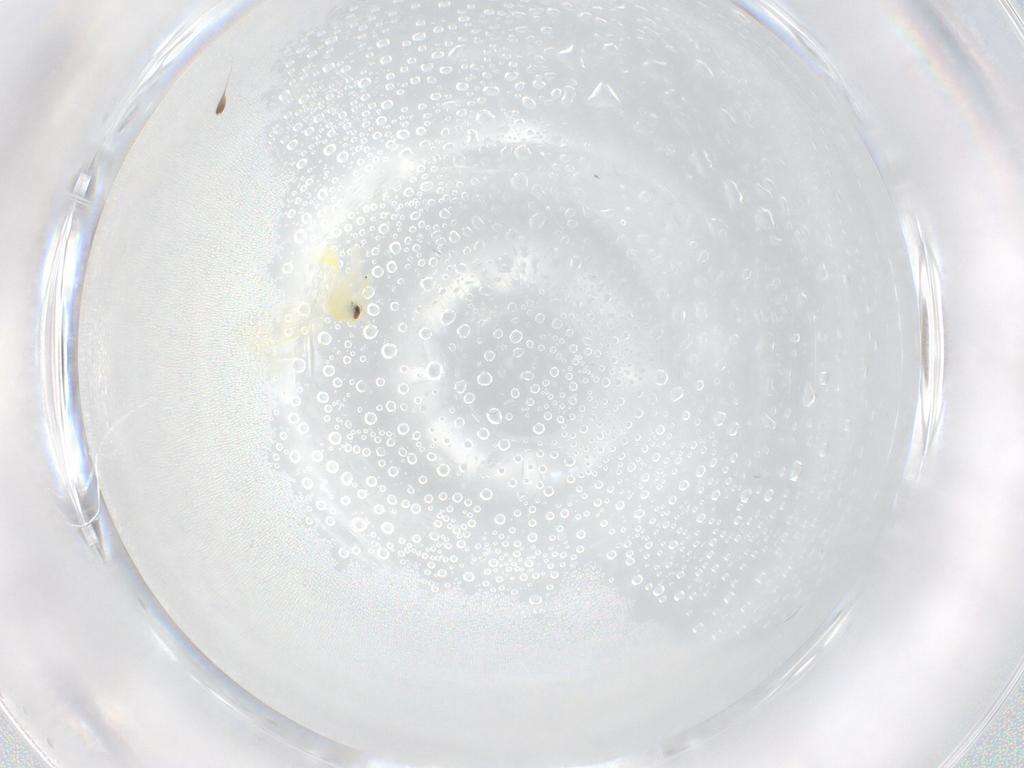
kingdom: Animalia
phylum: Arthropoda
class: Insecta
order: Hemiptera
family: Aleyrodidae
